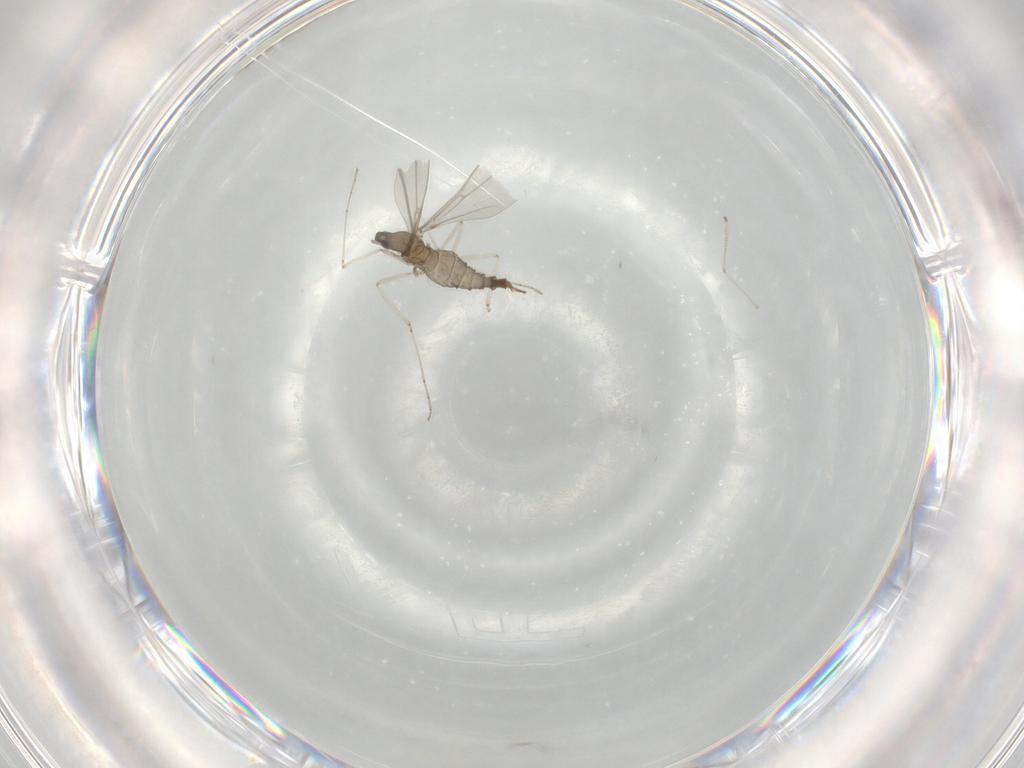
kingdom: Animalia
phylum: Arthropoda
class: Insecta
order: Diptera
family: Cecidomyiidae
